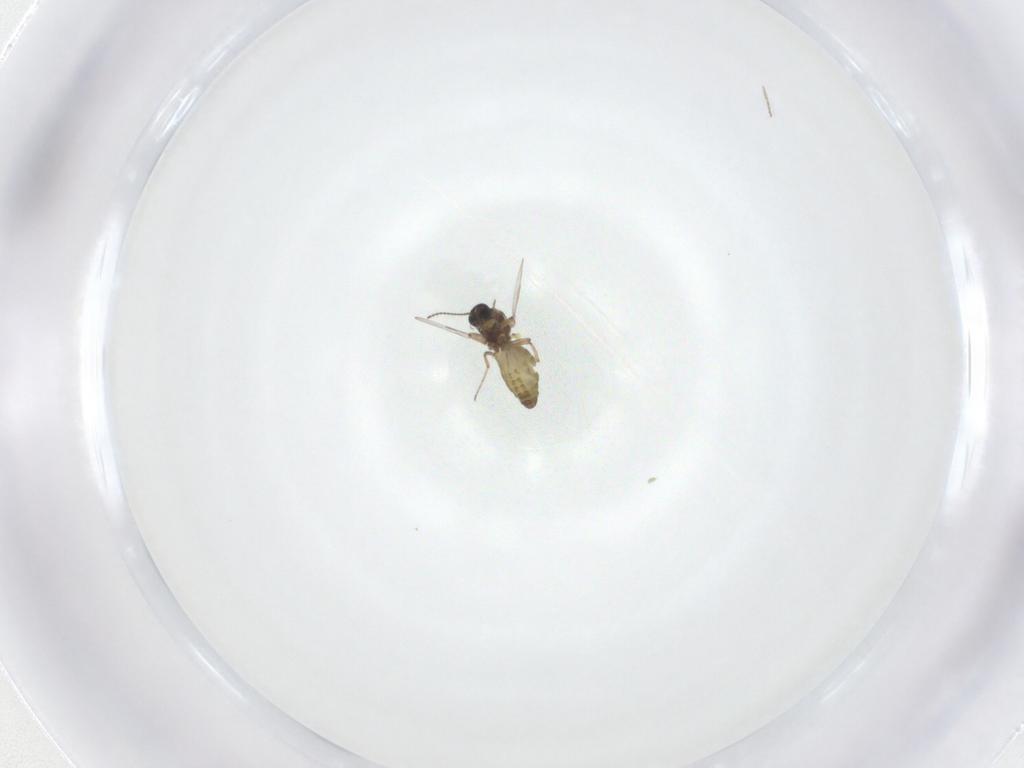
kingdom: Animalia
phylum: Arthropoda
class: Insecta
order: Diptera
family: Ceratopogonidae
